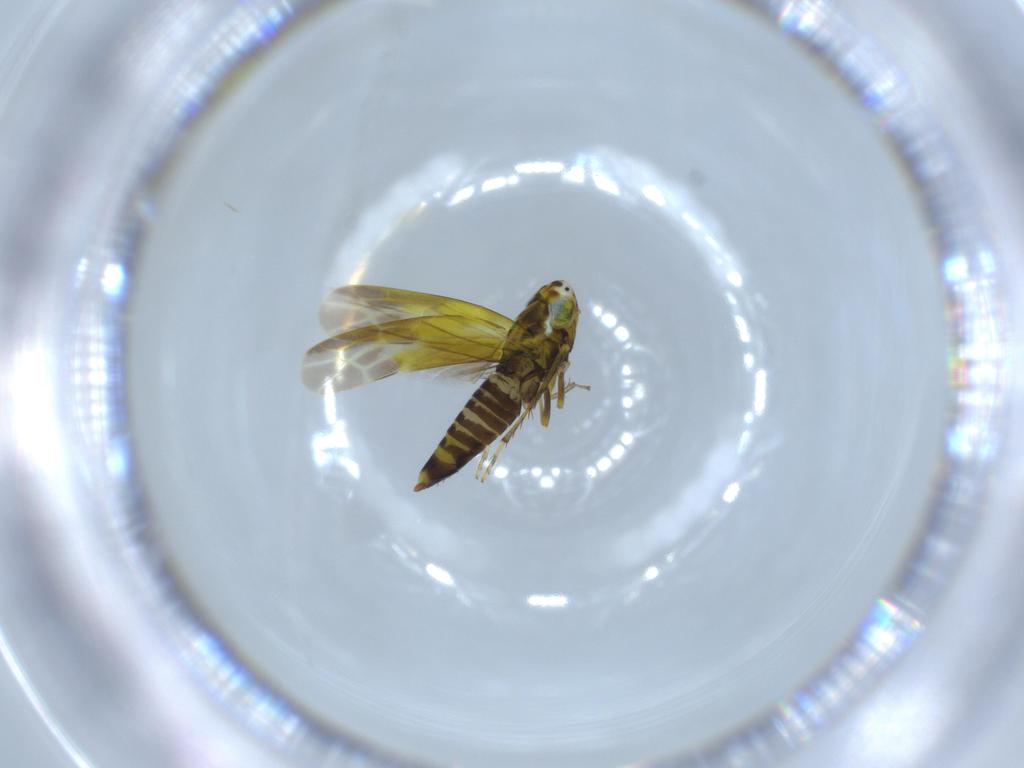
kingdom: Animalia
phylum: Arthropoda
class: Insecta
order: Hemiptera
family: Cicadellidae
